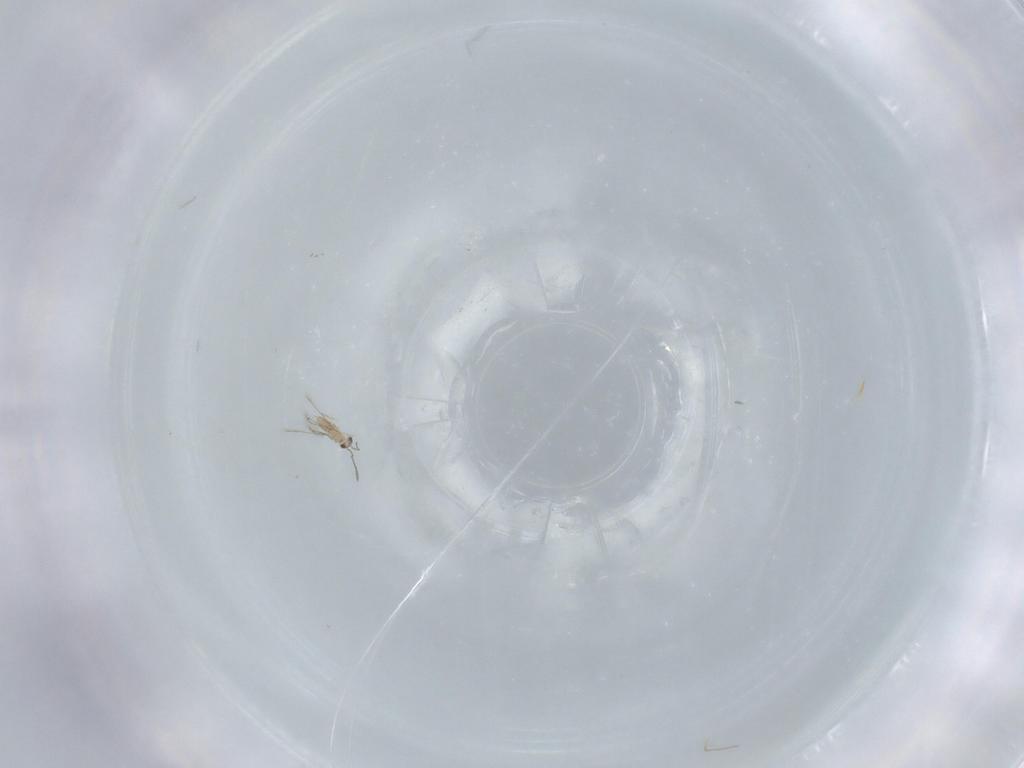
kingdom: Animalia
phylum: Arthropoda
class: Insecta
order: Hymenoptera
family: Mymaridae
